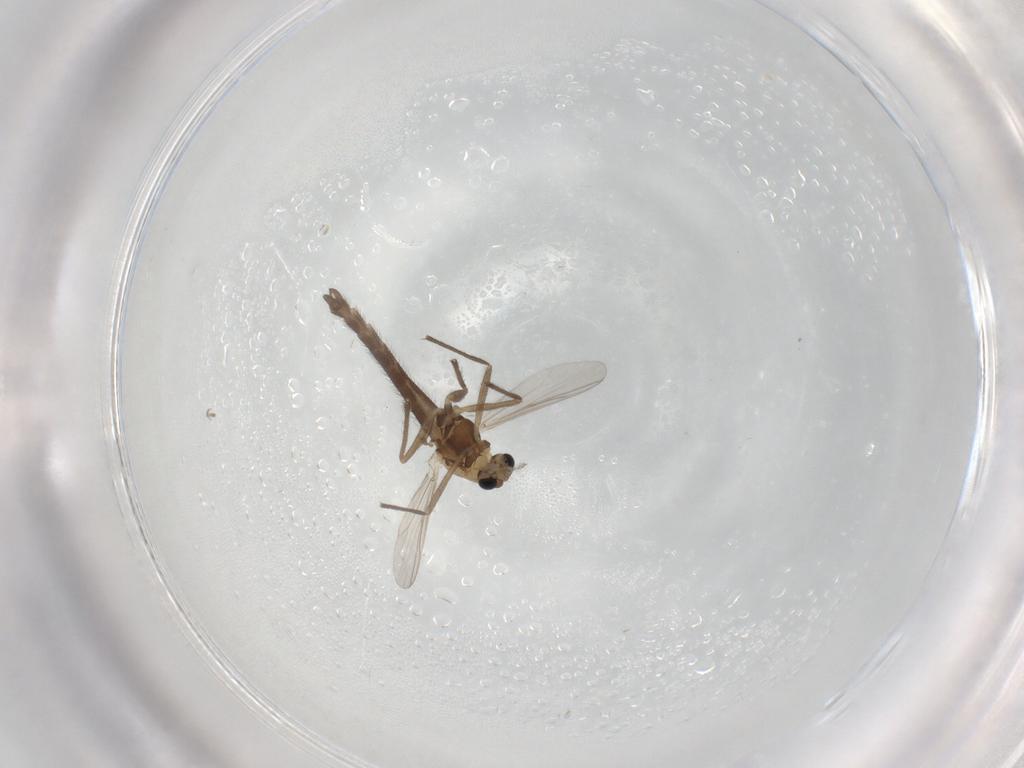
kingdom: Animalia
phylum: Arthropoda
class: Insecta
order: Diptera
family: Chironomidae
